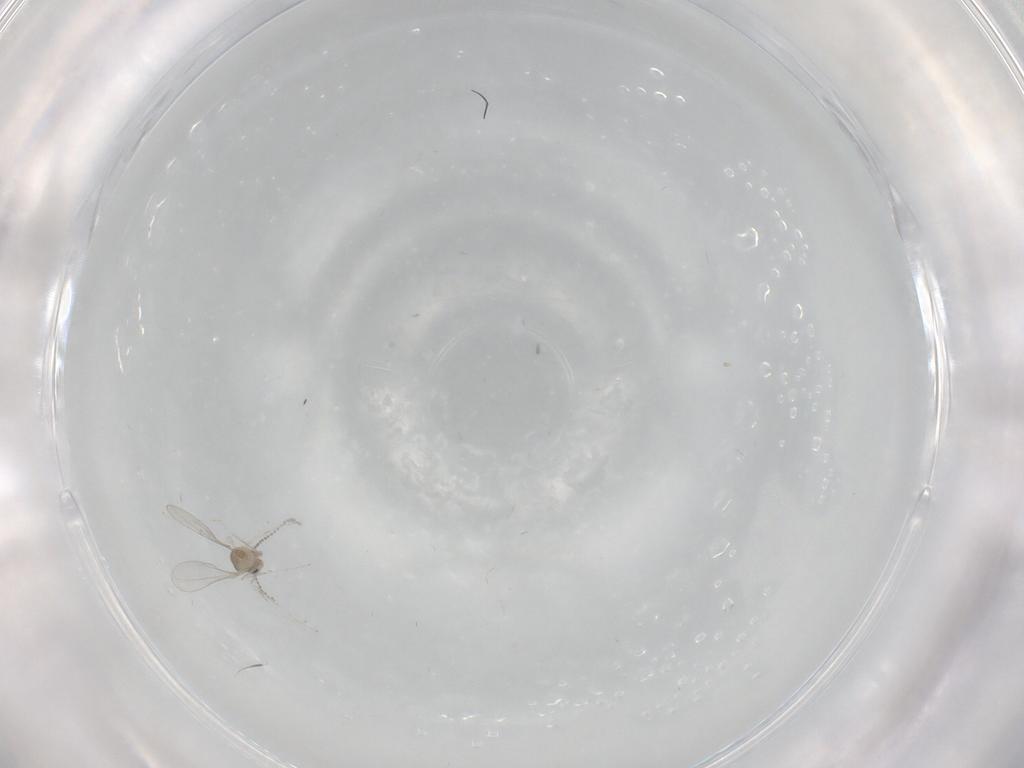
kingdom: Animalia
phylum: Arthropoda
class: Insecta
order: Diptera
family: Cecidomyiidae
